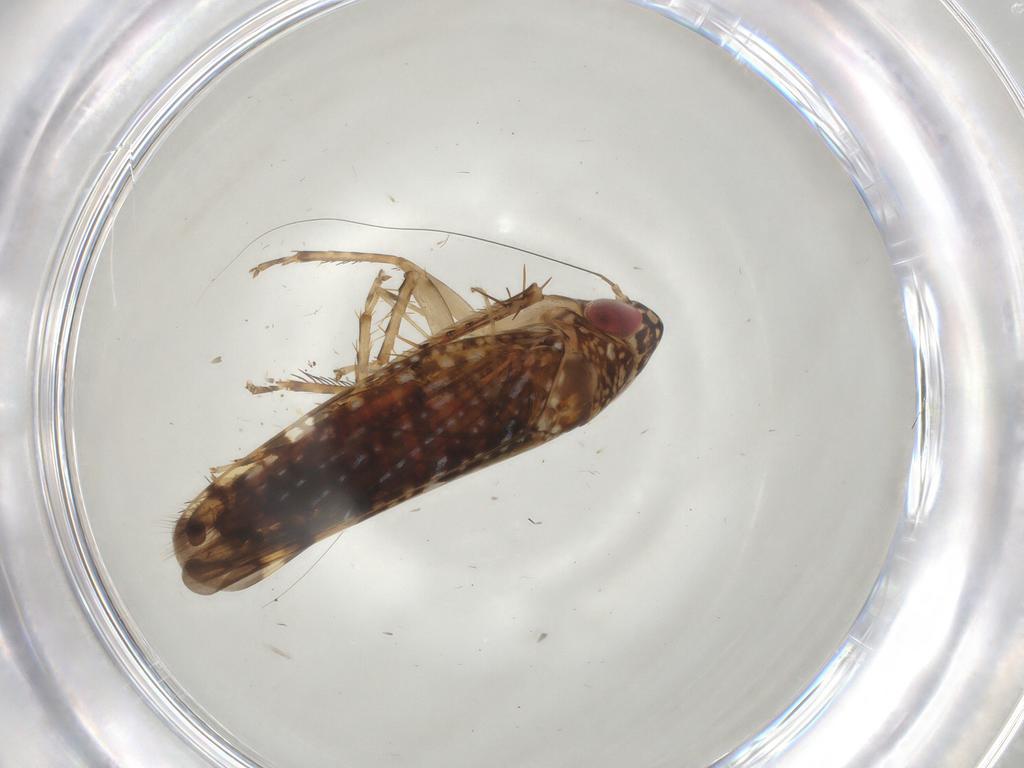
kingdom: Animalia
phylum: Arthropoda
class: Insecta
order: Hemiptera
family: Cicadellidae
